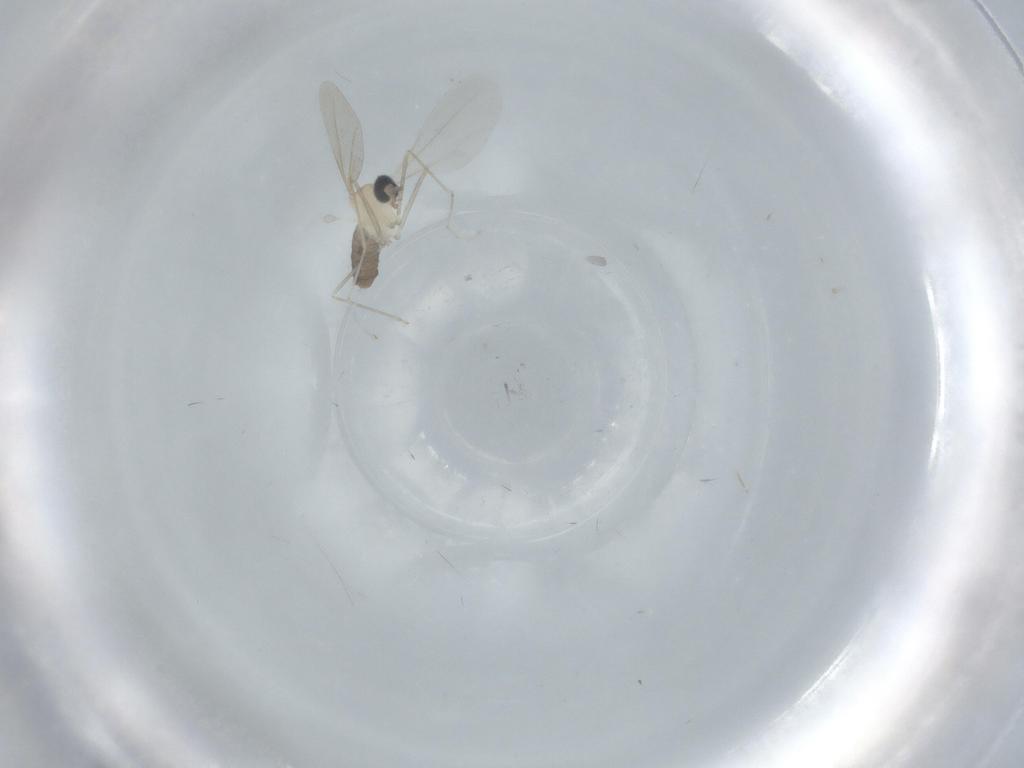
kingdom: Animalia
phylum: Arthropoda
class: Insecta
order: Diptera
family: Cecidomyiidae
